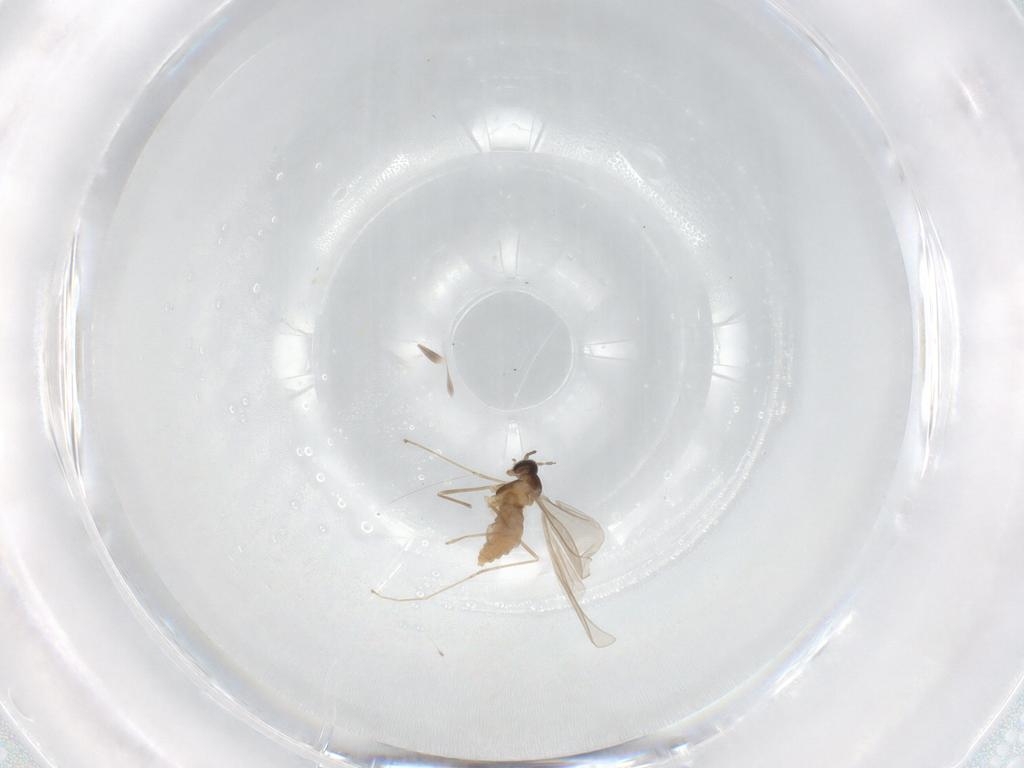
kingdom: Animalia
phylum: Arthropoda
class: Insecta
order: Diptera
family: Cecidomyiidae
